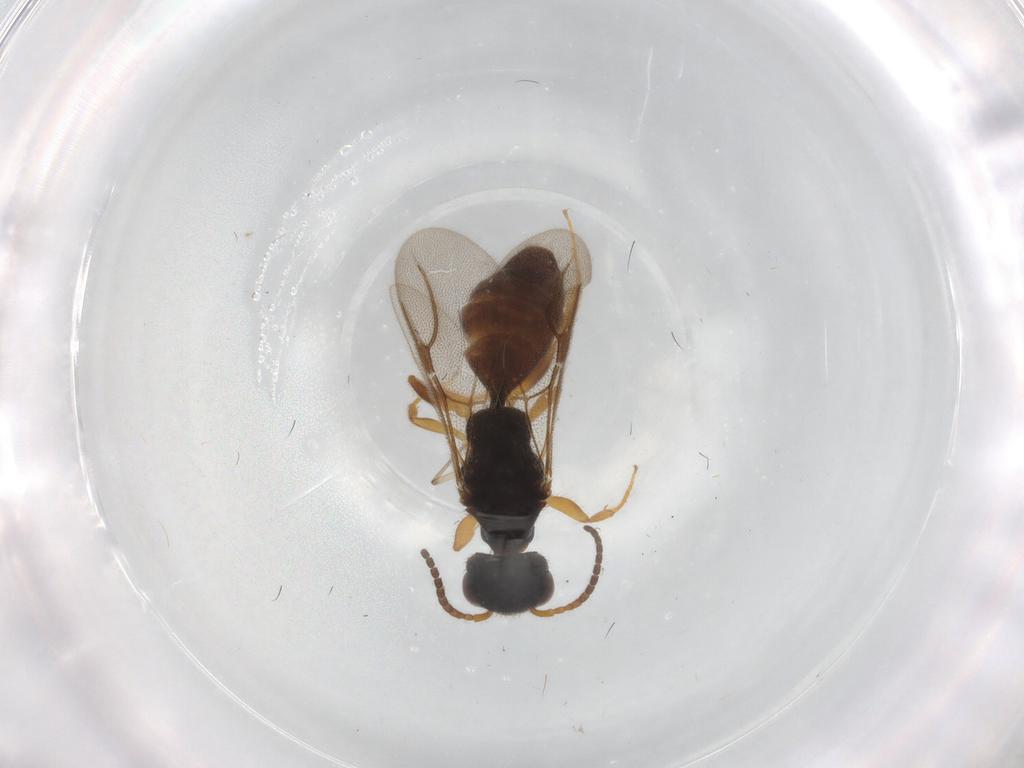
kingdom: Animalia
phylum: Arthropoda
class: Insecta
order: Hymenoptera
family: Bethylidae
